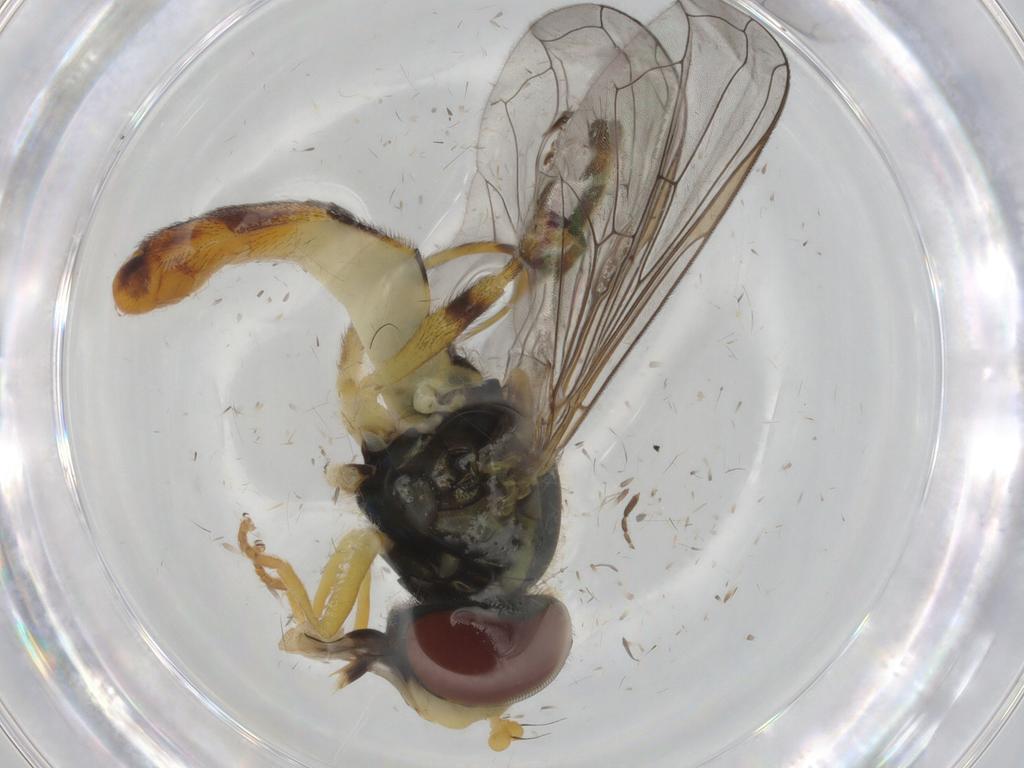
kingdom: Animalia
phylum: Arthropoda
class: Insecta
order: Diptera
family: Syrphidae
